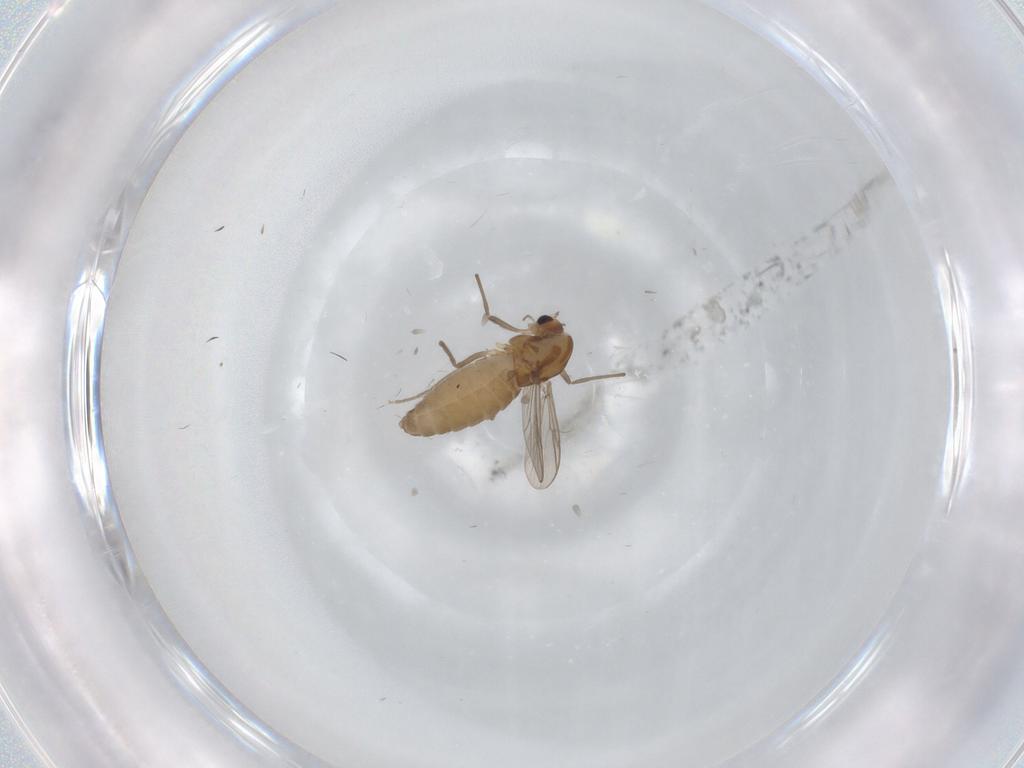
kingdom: Animalia
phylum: Arthropoda
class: Insecta
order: Diptera
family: Chironomidae
